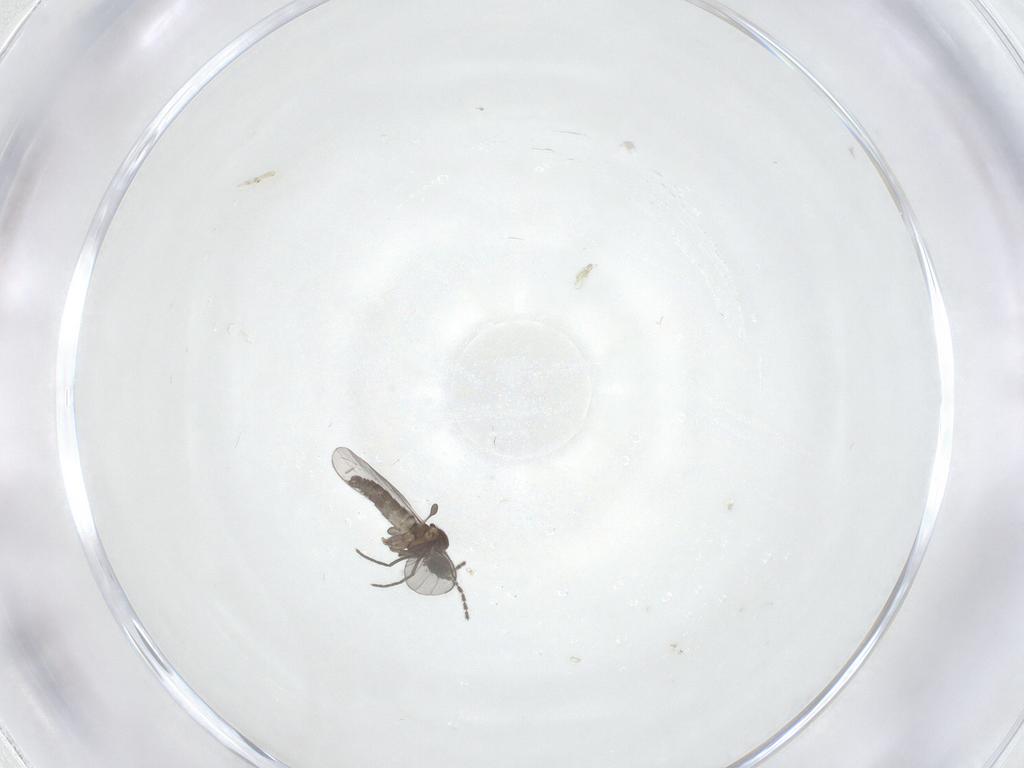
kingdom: Animalia
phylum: Arthropoda
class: Insecta
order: Diptera
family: Sciaridae
